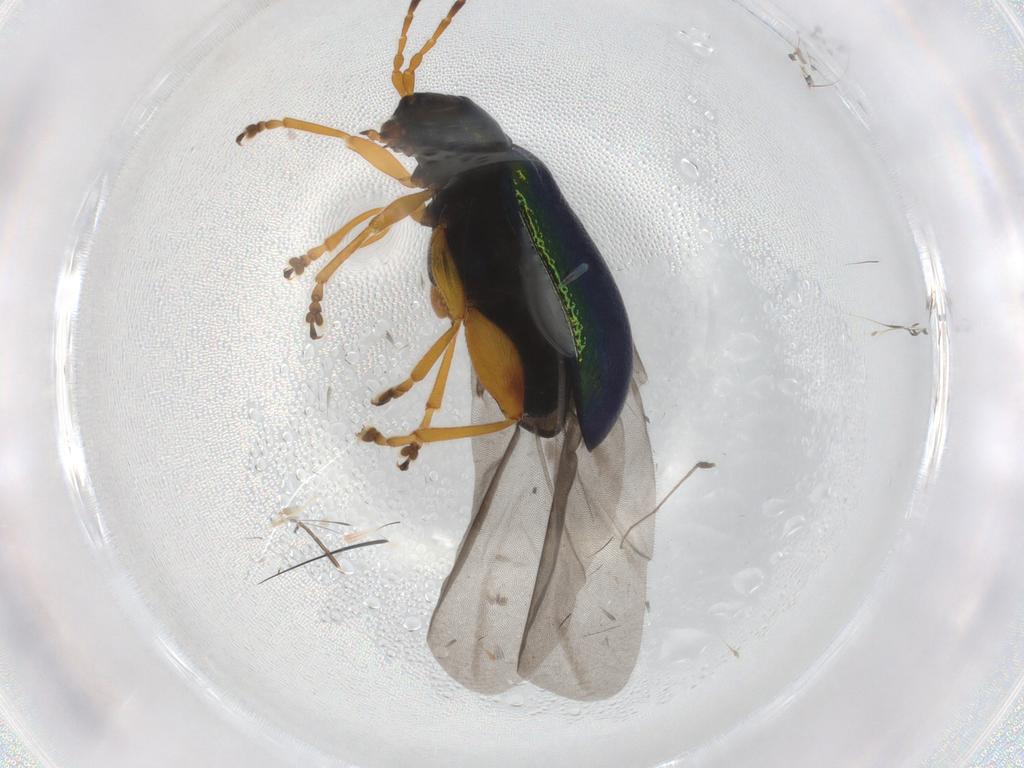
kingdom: Animalia
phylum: Arthropoda
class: Insecta
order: Coleoptera
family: Chrysomelidae
